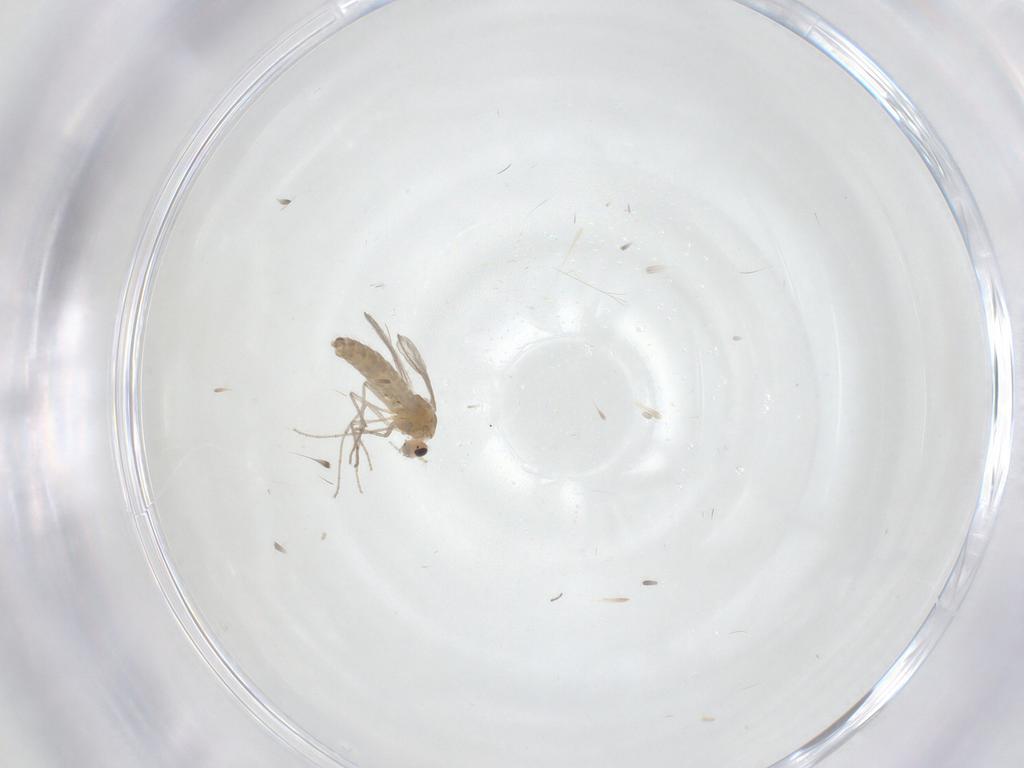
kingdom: Animalia
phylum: Arthropoda
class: Insecta
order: Diptera
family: Chironomidae
